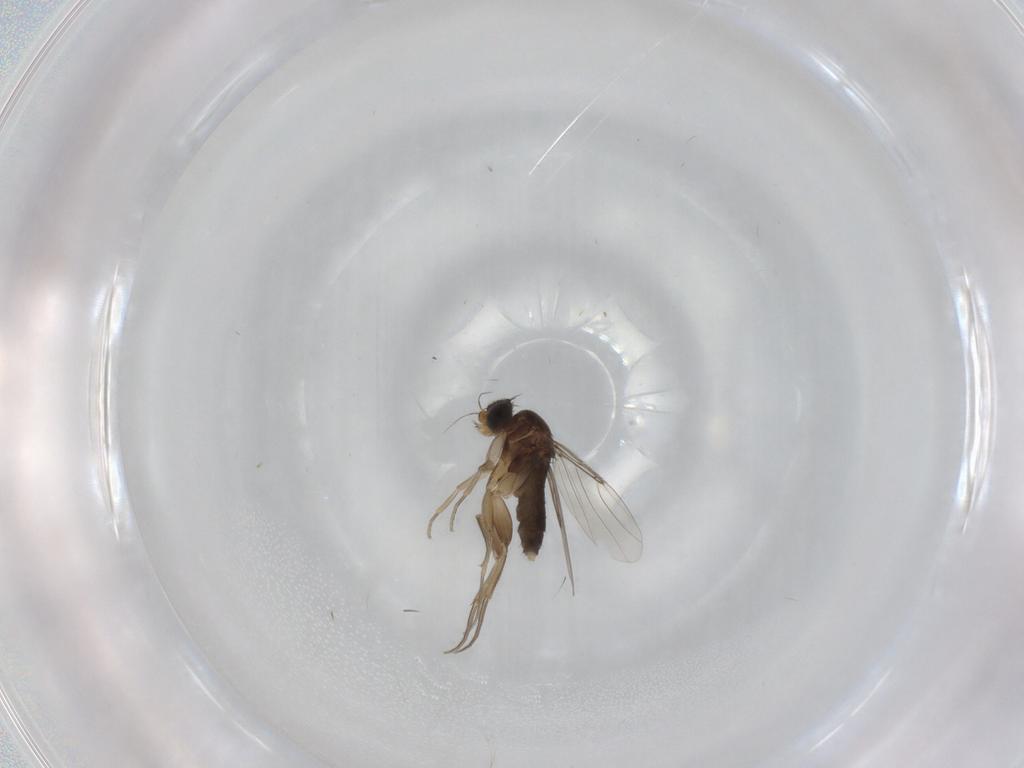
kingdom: Animalia
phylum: Arthropoda
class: Insecta
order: Diptera
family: Phoridae
